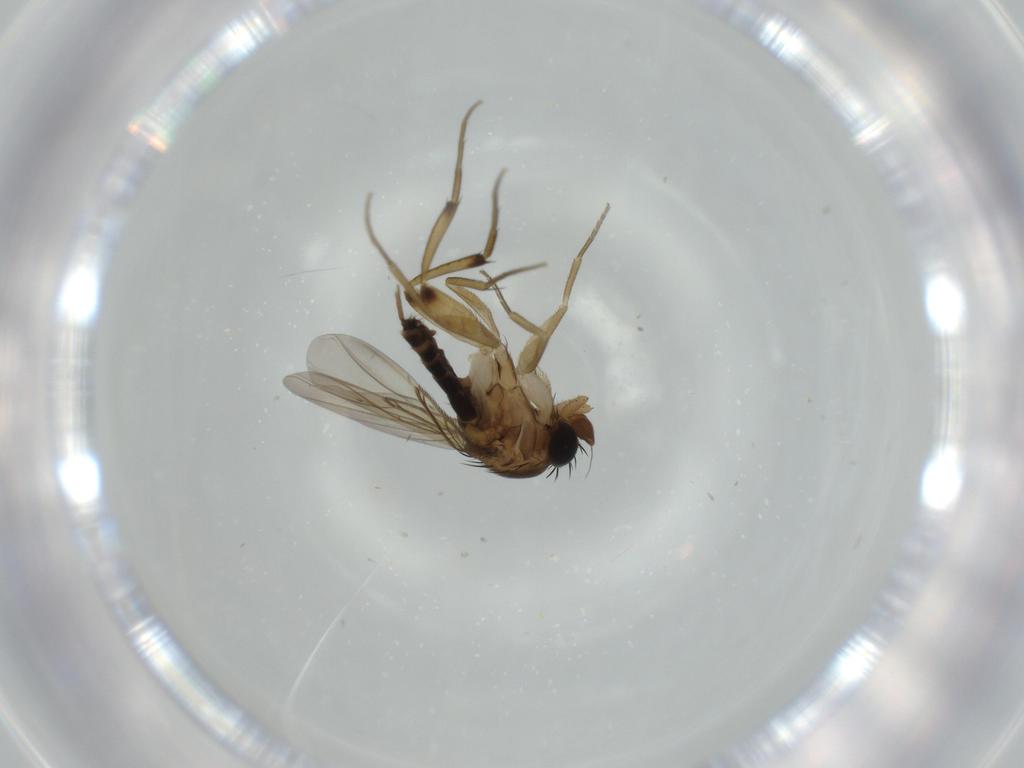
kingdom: Animalia
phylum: Arthropoda
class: Insecta
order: Diptera
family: Phoridae
